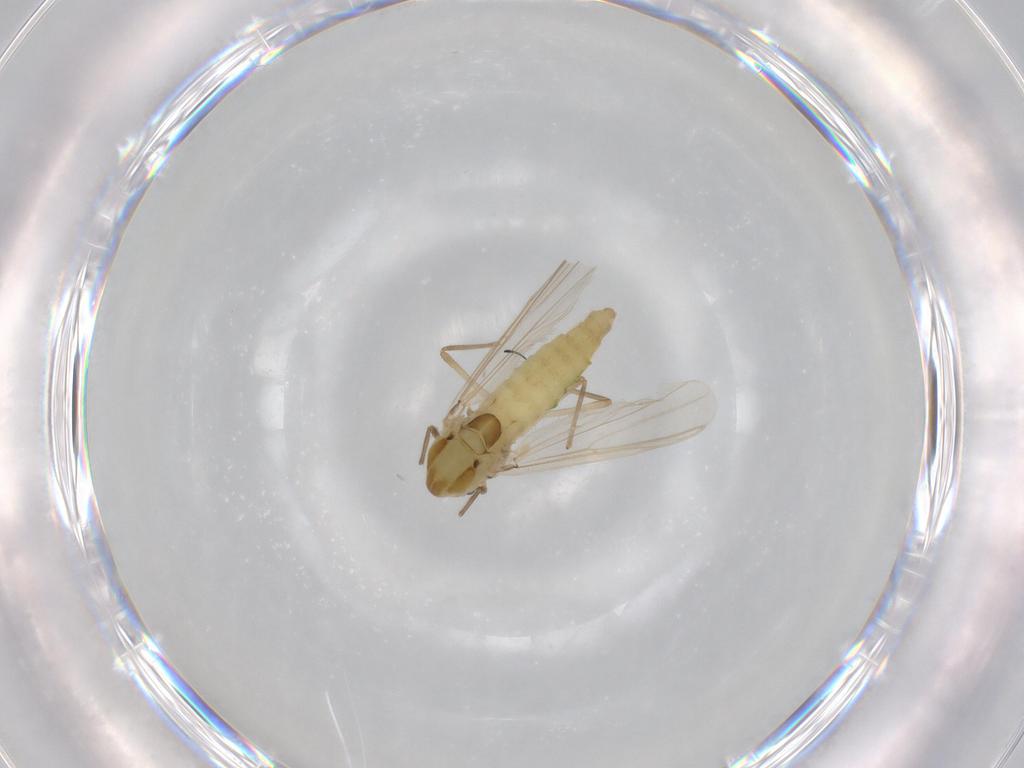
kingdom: Animalia
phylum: Arthropoda
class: Insecta
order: Diptera
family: Chironomidae
